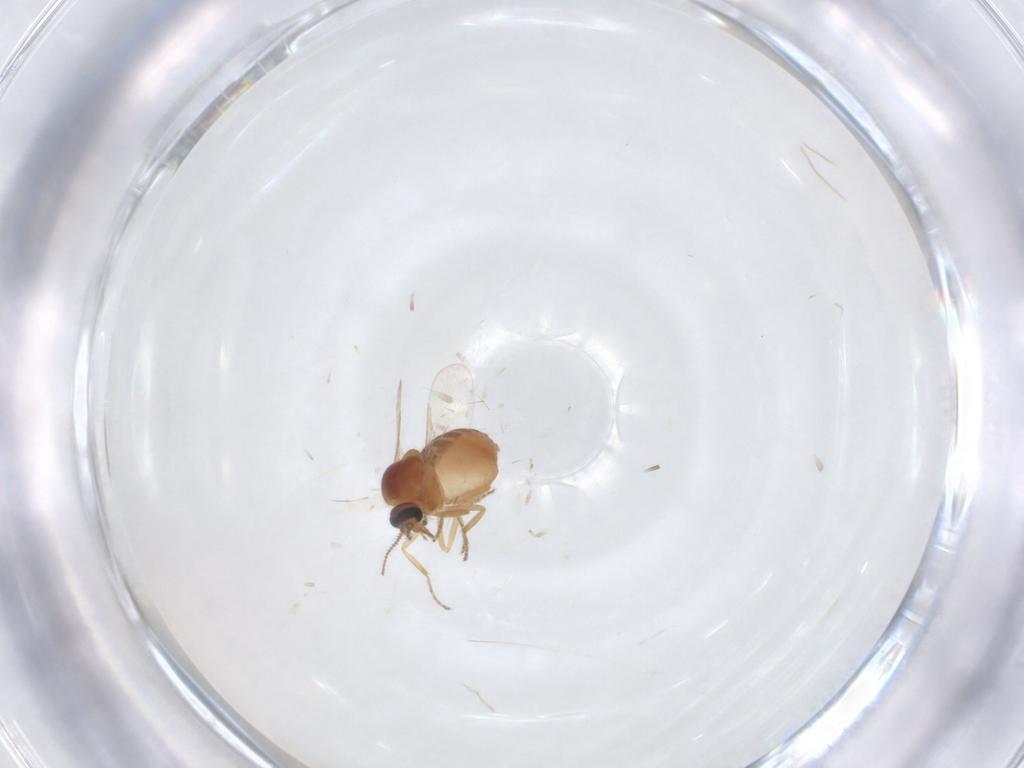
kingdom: Animalia
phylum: Arthropoda
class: Insecta
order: Diptera
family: Ceratopogonidae
